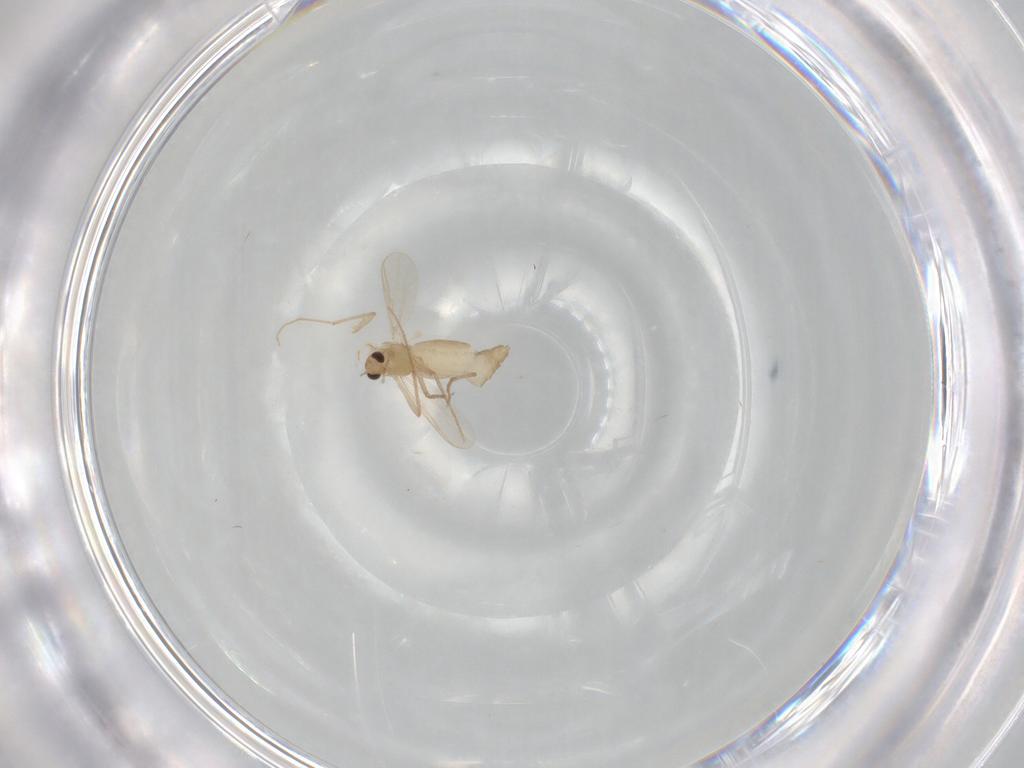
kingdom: Animalia
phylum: Arthropoda
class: Insecta
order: Diptera
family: Chironomidae
